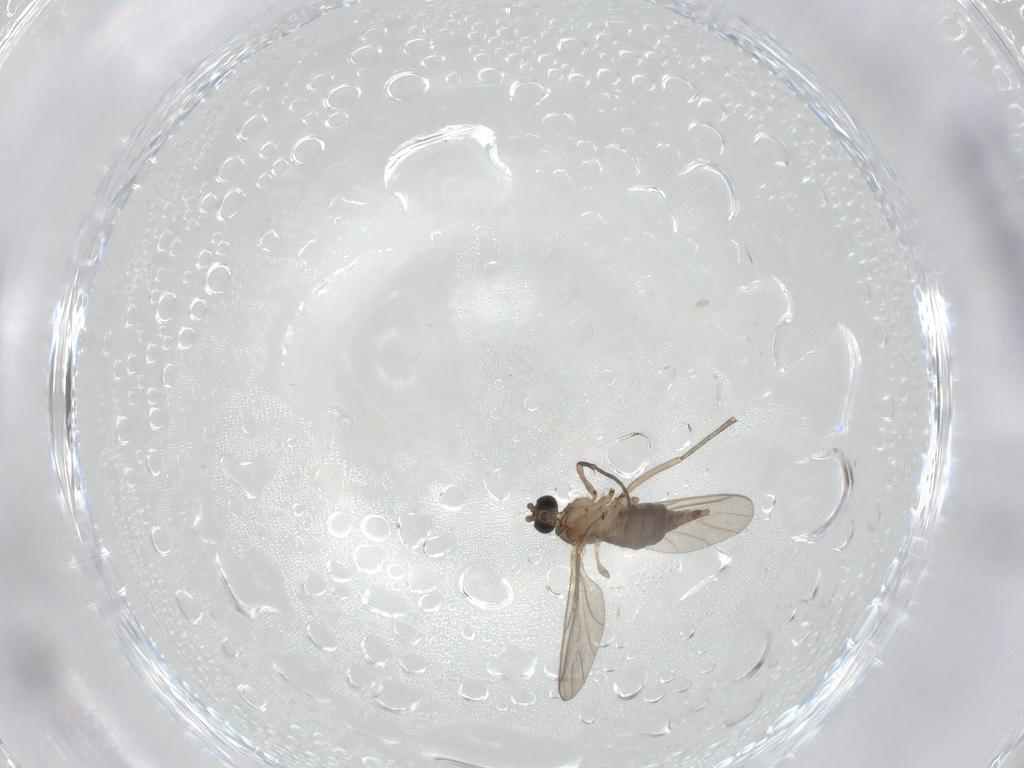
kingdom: Animalia
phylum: Arthropoda
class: Insecta
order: Diptera
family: Sciaridae
